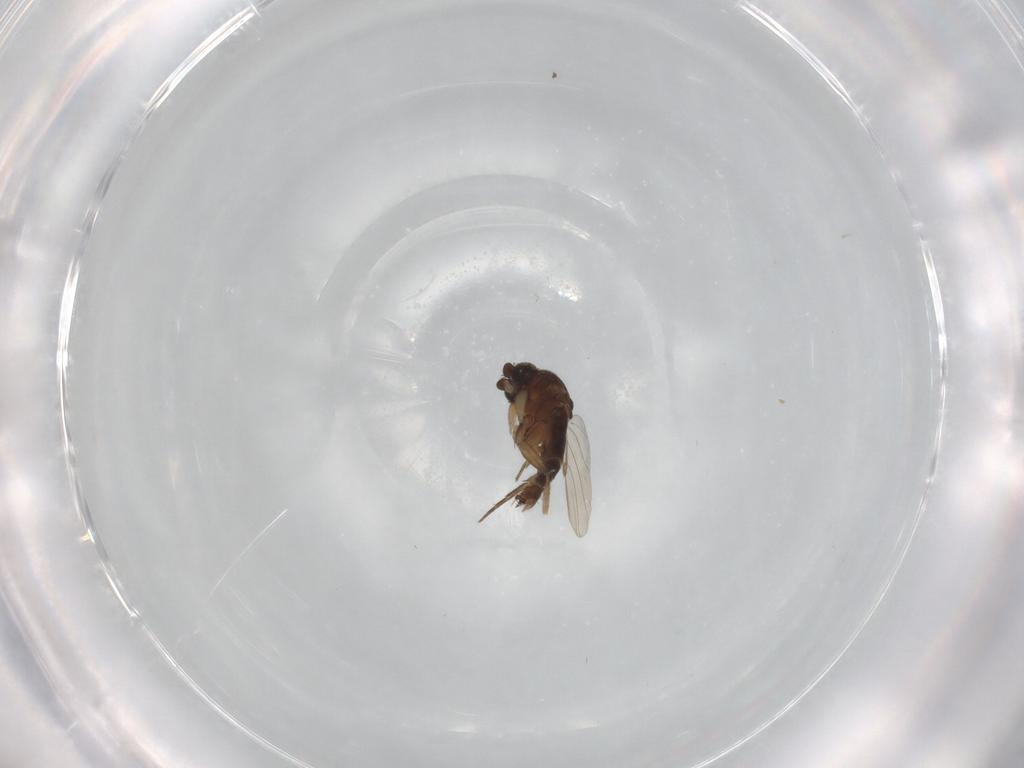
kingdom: Animalia
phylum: Arthropoda
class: Insecta
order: Diptera
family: Phoridae
